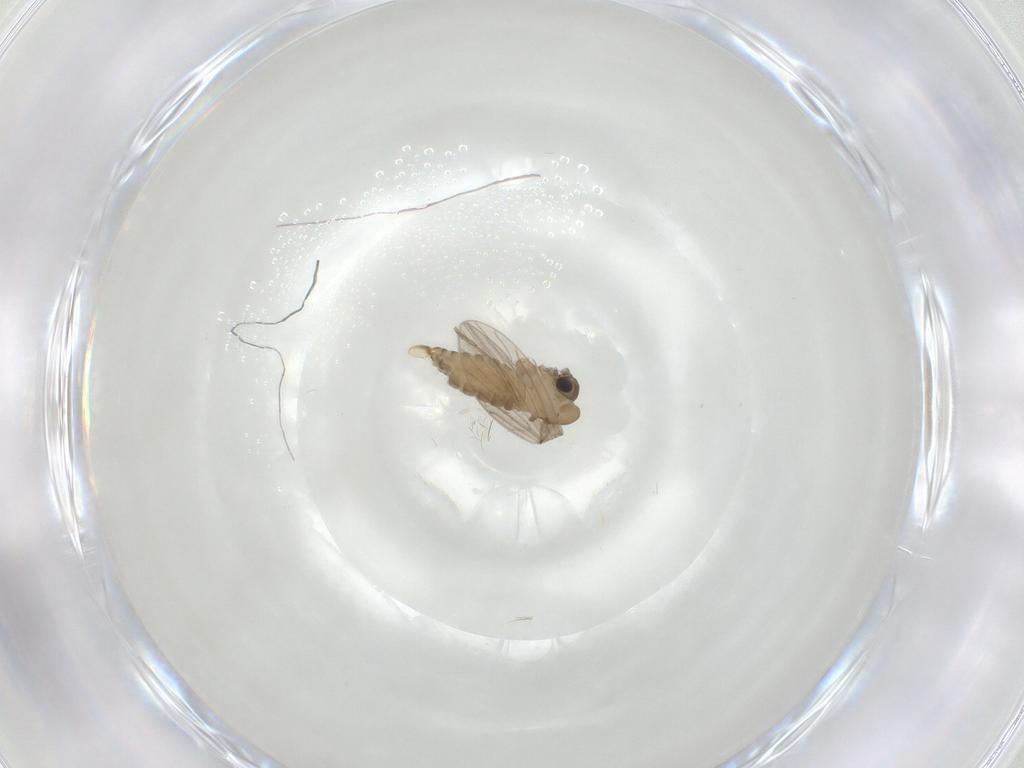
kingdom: Animalia
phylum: Arthropoda
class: Insecta
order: Diptera
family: Psychodidae
